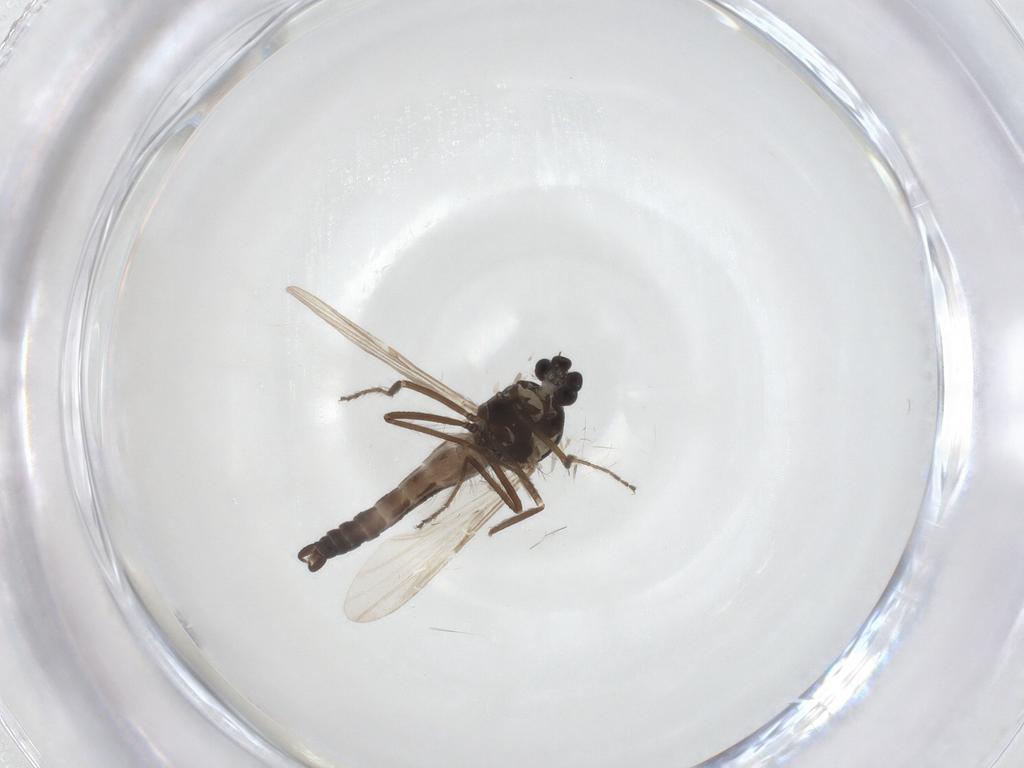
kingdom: Animalia
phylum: Arthropoda
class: Insecta
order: Diptera
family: Ceratopogonidae
